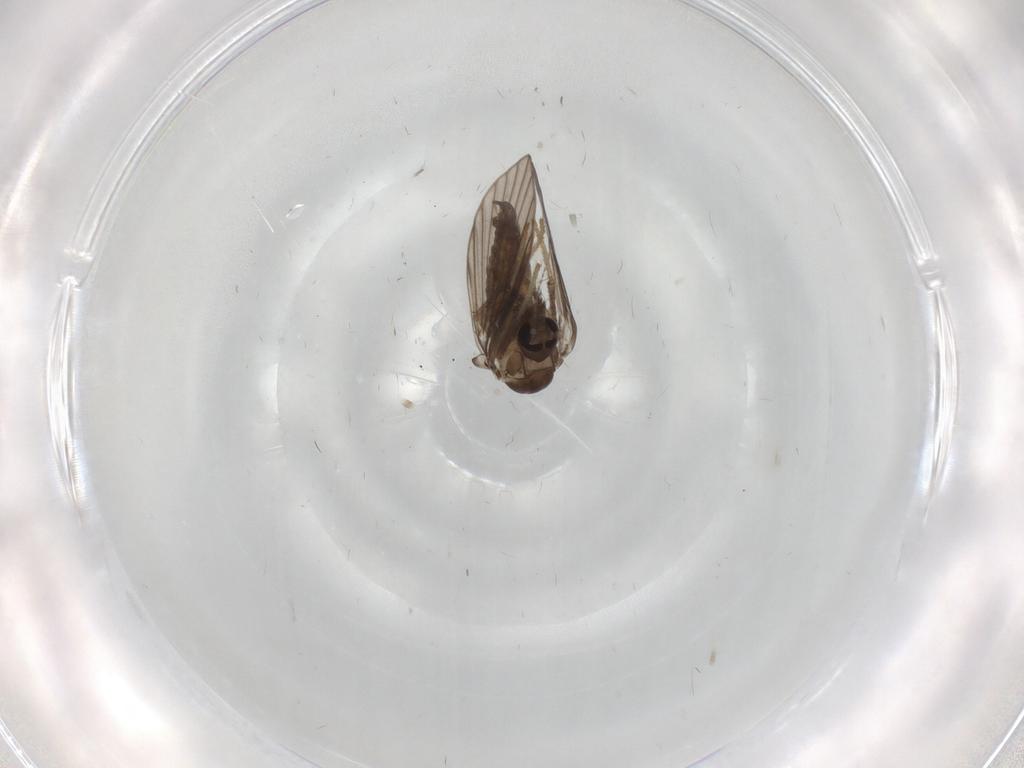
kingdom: Animalia
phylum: Arthropoda
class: Insecta
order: Diptera
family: Psychodidae
